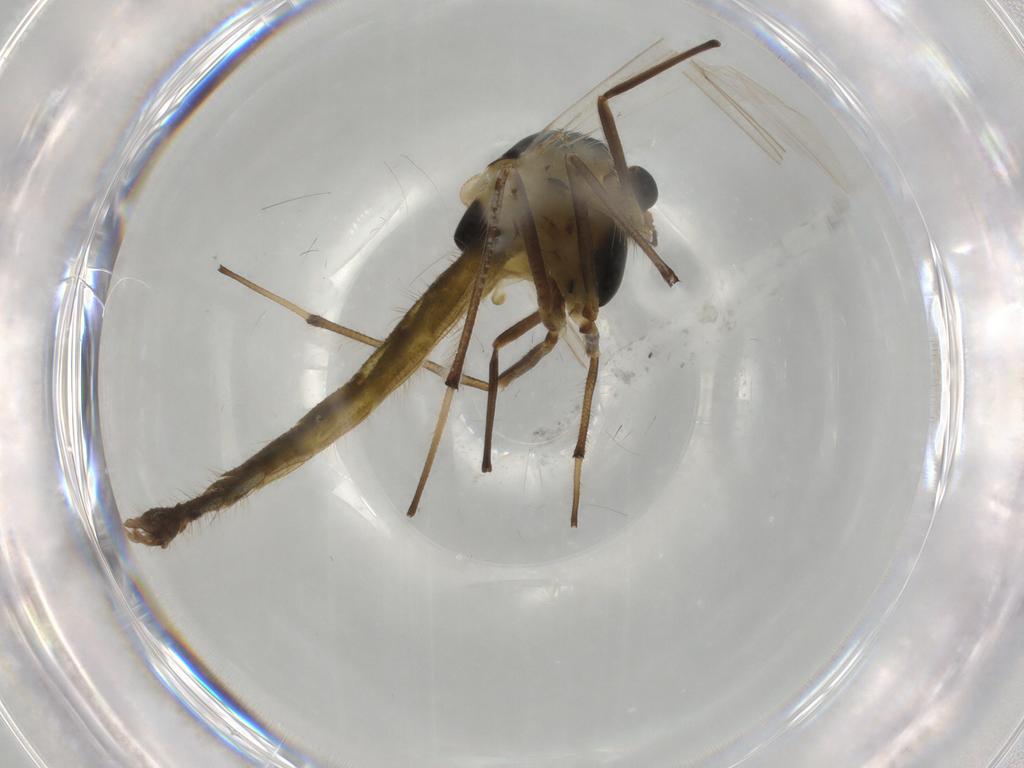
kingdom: Animalia
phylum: Arthropoda
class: Insecta
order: Diptera
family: Chironomidae
